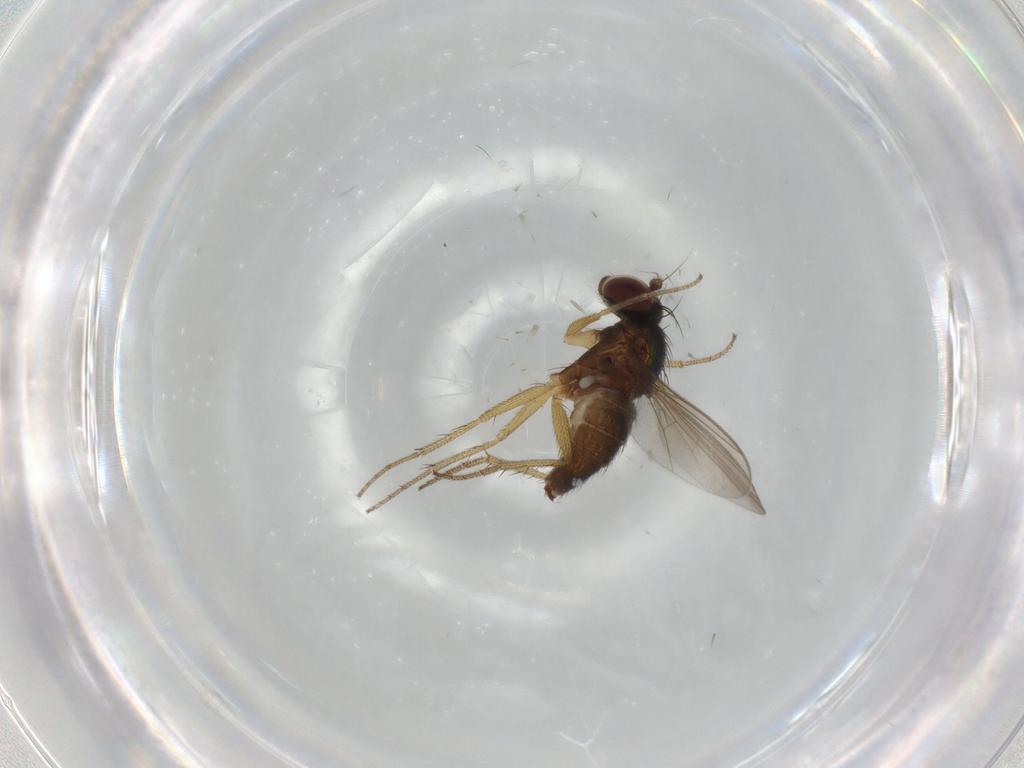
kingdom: Animalia
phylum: Arthropoda
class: Insecta
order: Diptera
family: Dolichopodidae
